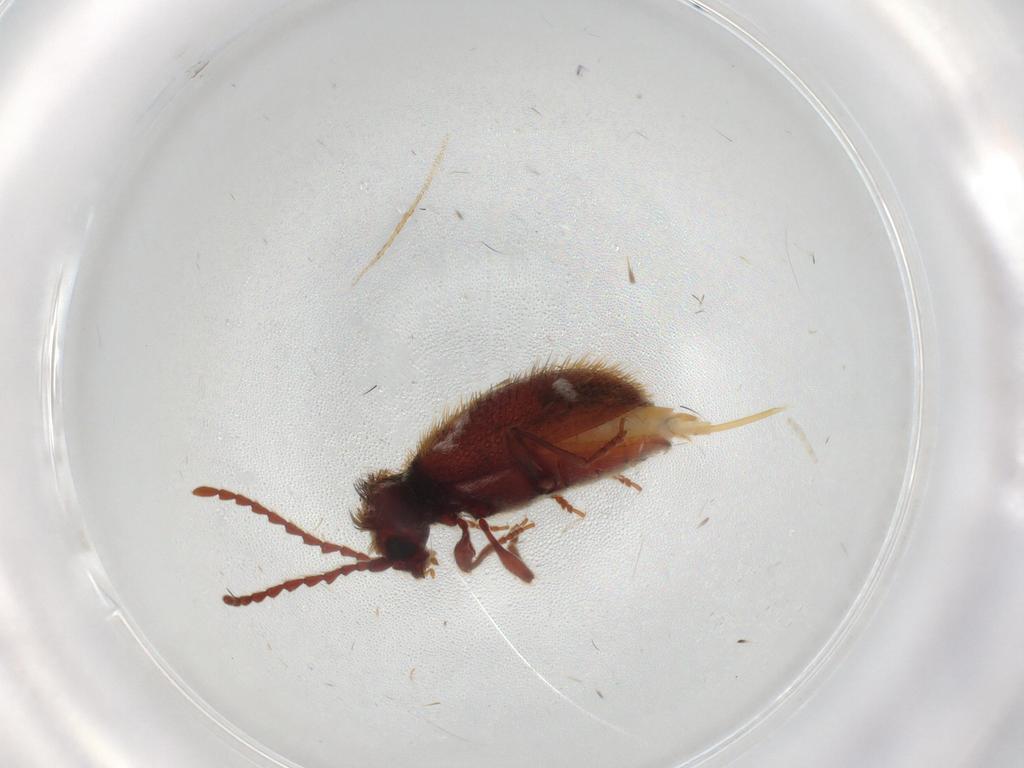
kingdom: Animalia
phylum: Arthropoda
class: Insecta
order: Coleoptera
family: Ptinidae
